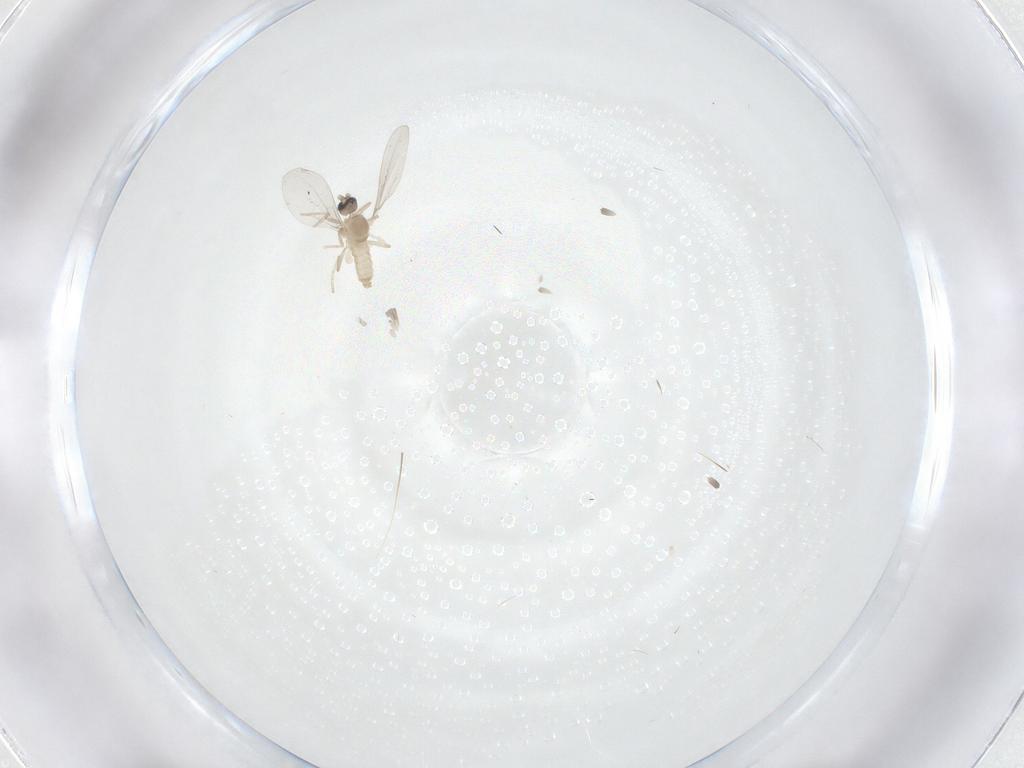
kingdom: Animalia
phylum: Arthropoda
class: Insecta
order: Diptera
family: Cecidomyiidae
